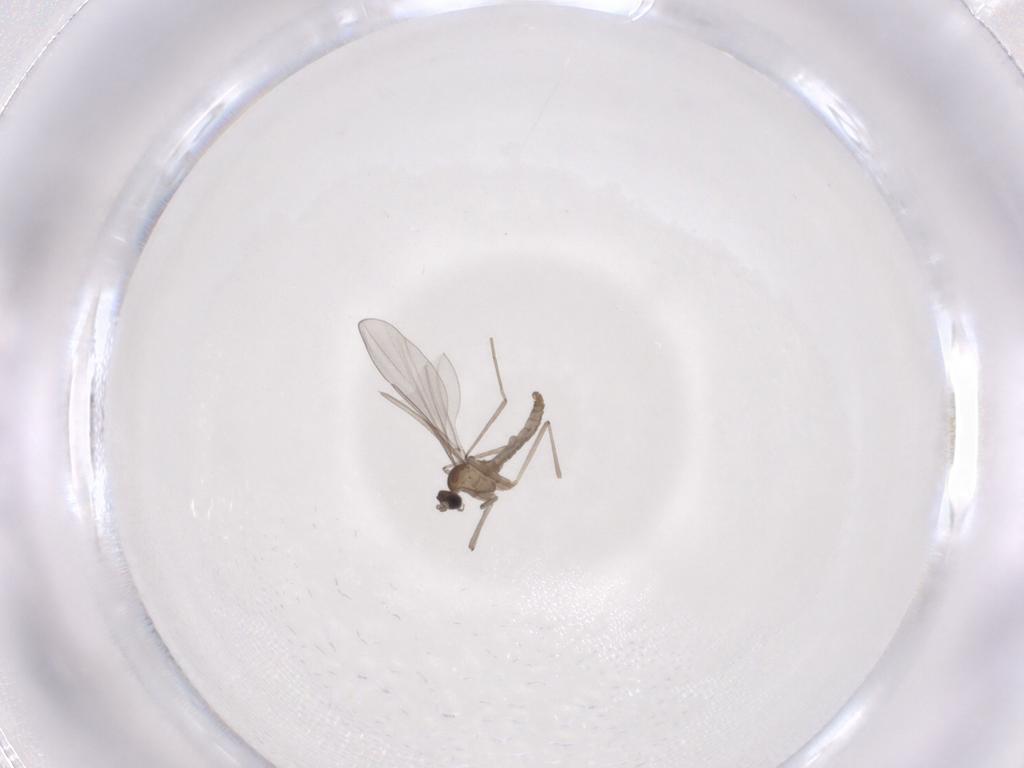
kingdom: Animalia
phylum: Arthropoda
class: Insecta
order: Diptera
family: Cecidomyiidae
